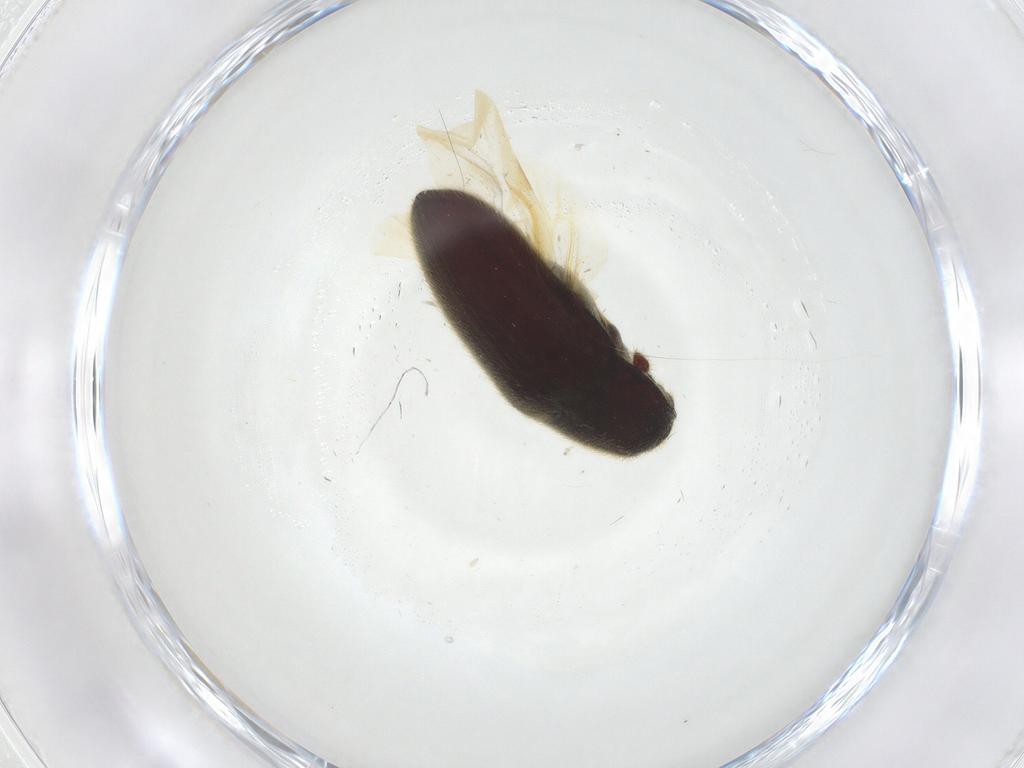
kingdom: Animalia
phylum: Arthropoda
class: Insecta
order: Coleoptera
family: Throscidae
